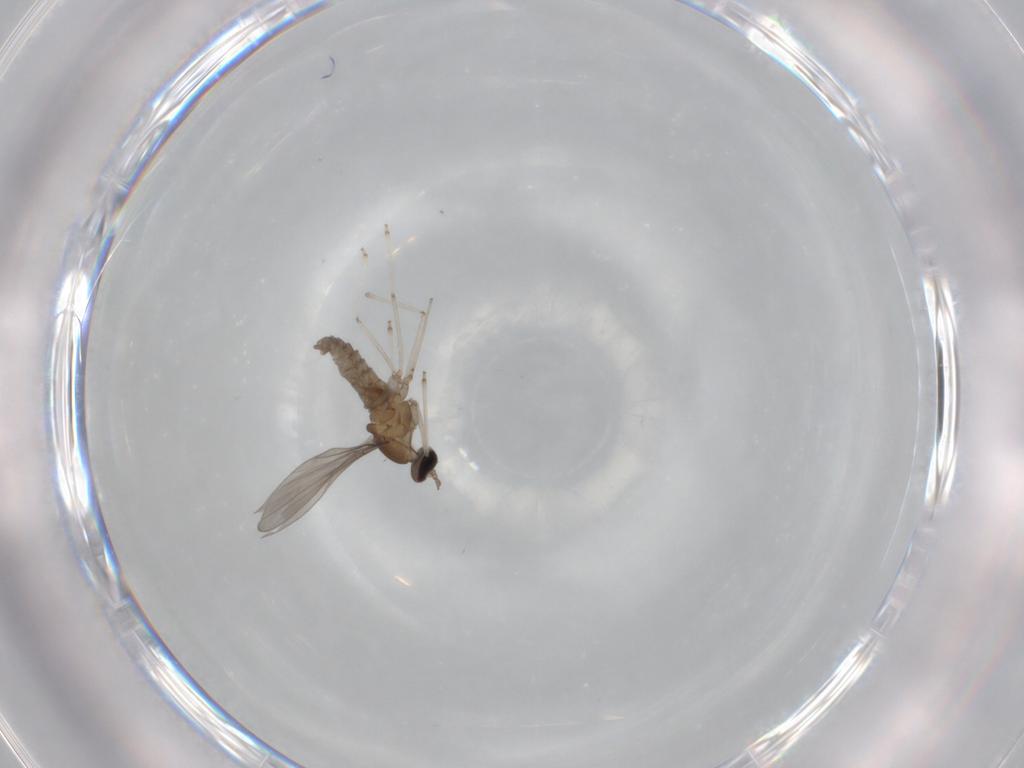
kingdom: Animalia
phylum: Arthropoda
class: Insecta
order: Diptera
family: Cecidomyiidae
